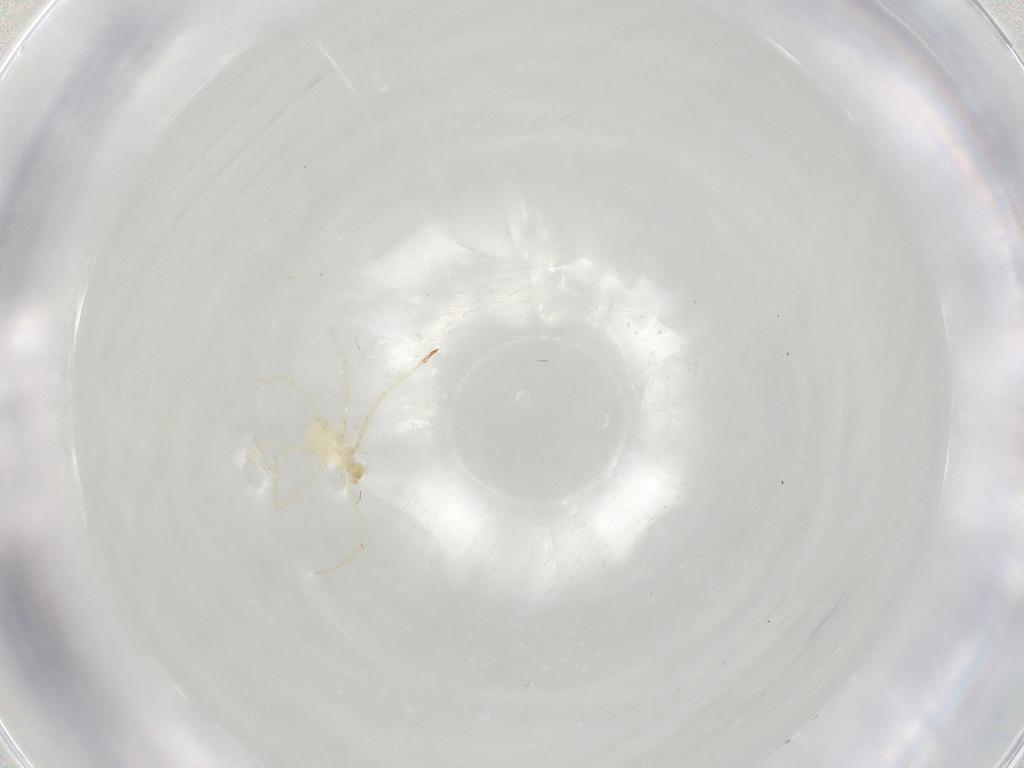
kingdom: Animalia
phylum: Arthropoda
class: Arachnida
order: Trombidiformes
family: Erythraeidae
